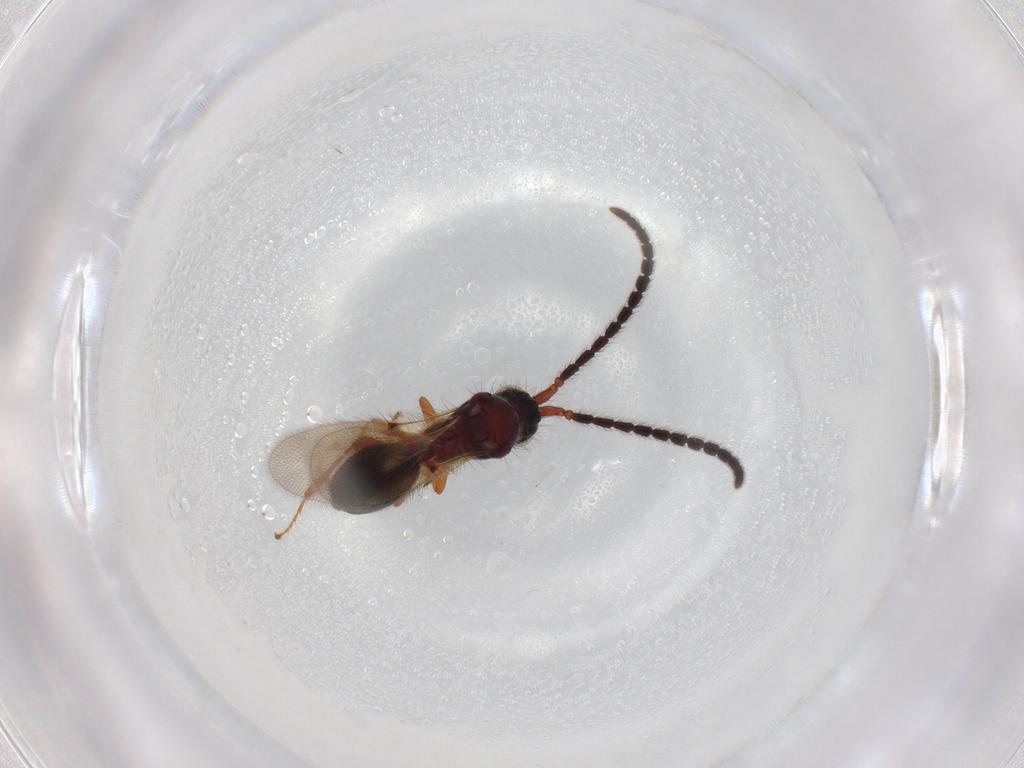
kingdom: Animalia
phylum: Arthropoda
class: Insecta
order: Hymenoptera
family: Diapriidae
